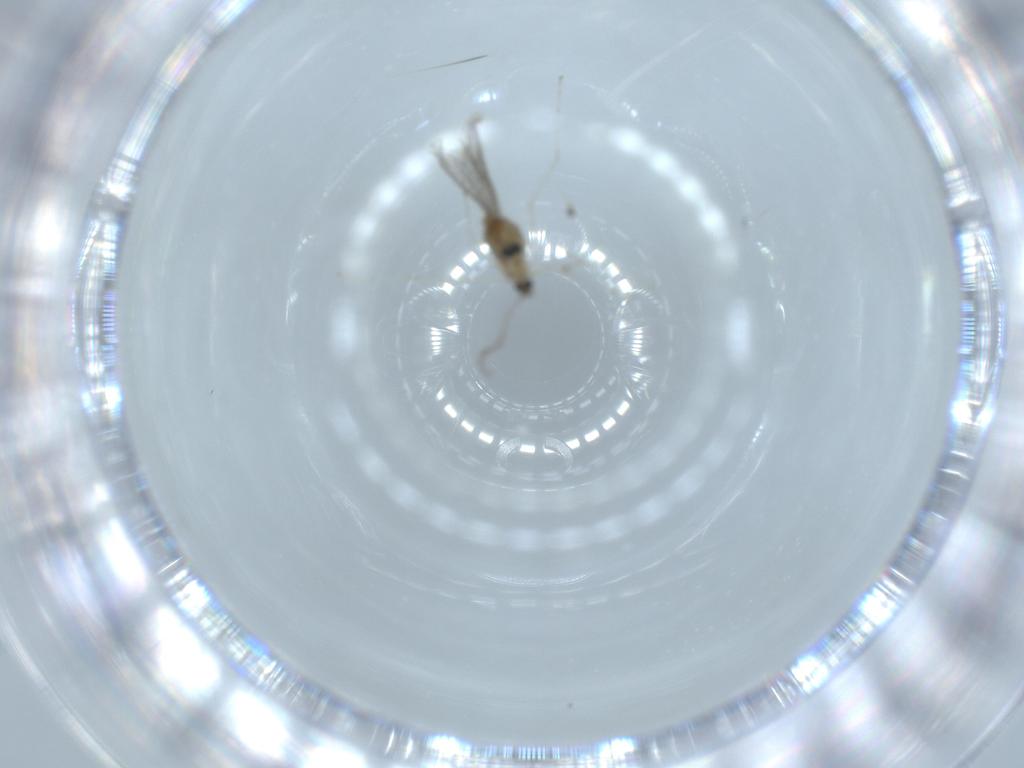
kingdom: Animalia
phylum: Arthropoda
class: Insecta
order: Diptera
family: Cecidomyiidae
